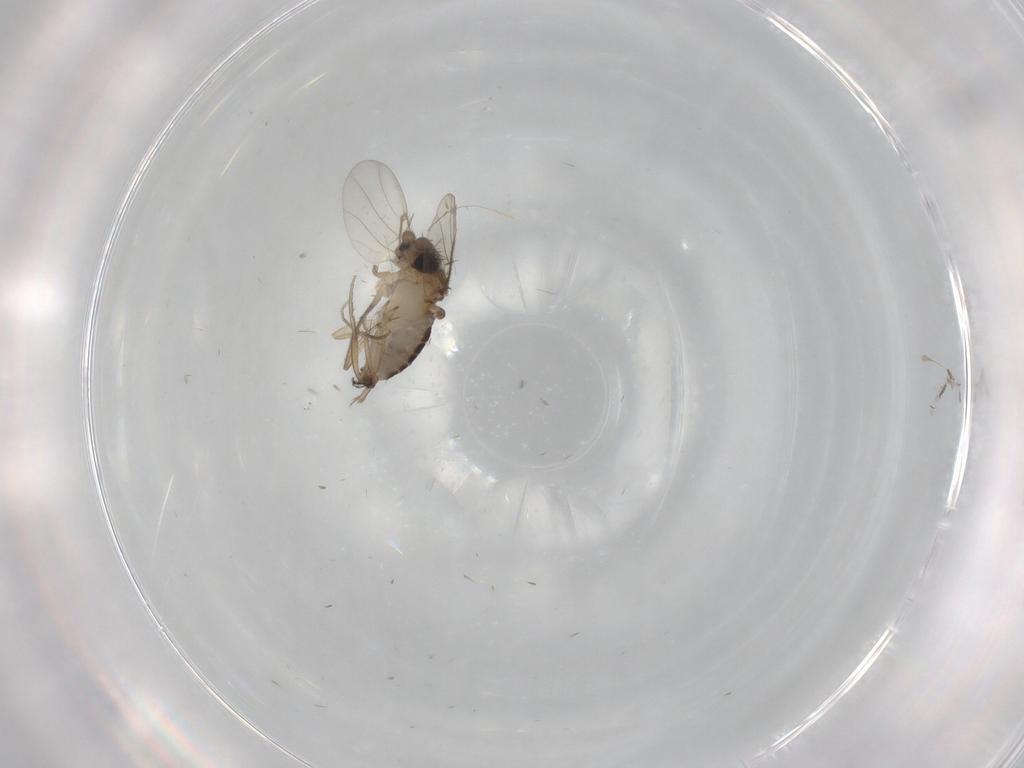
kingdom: Animalia
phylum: Arthropoda
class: Insecta
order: Diptera
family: Phoridae
